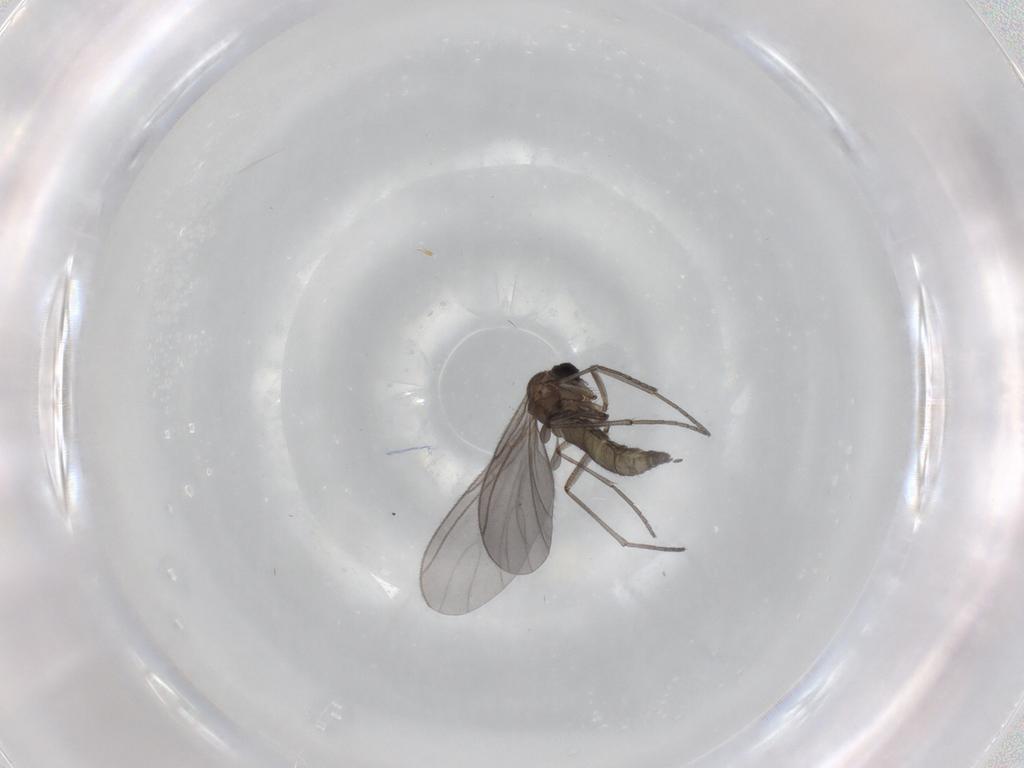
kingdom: Animalia
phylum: Arthropoda
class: Insecta
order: Diptera
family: Sciaridae
